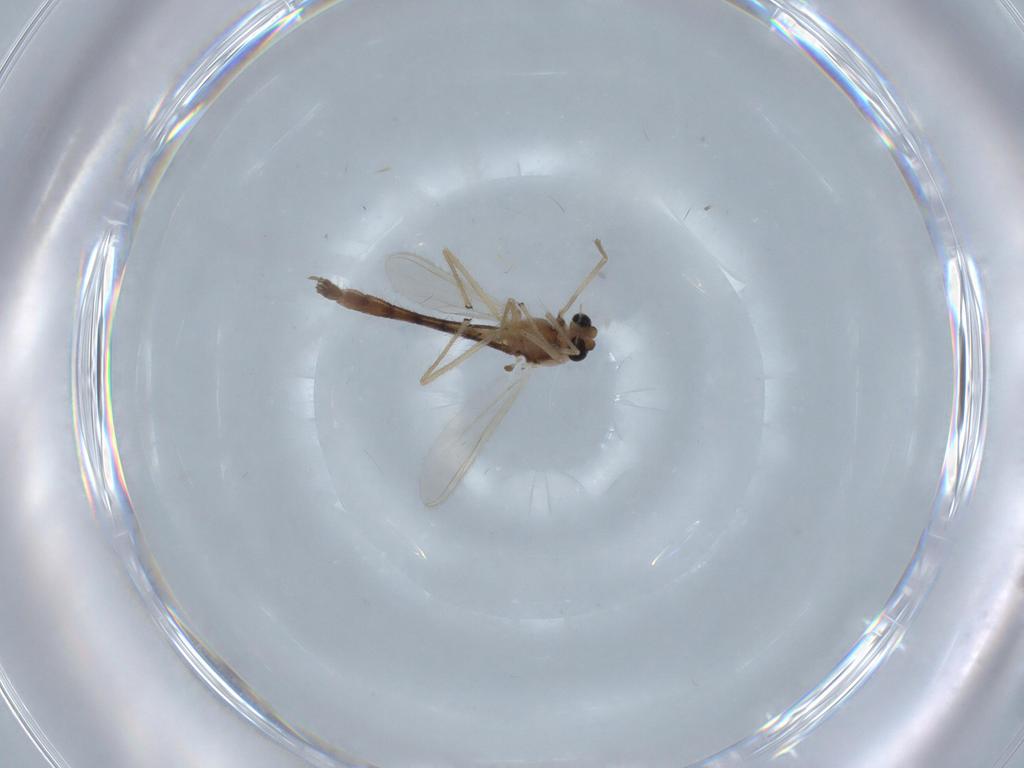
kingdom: Animalia
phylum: Arthropoda
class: Insecta
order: Diptera
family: Chironomidae
